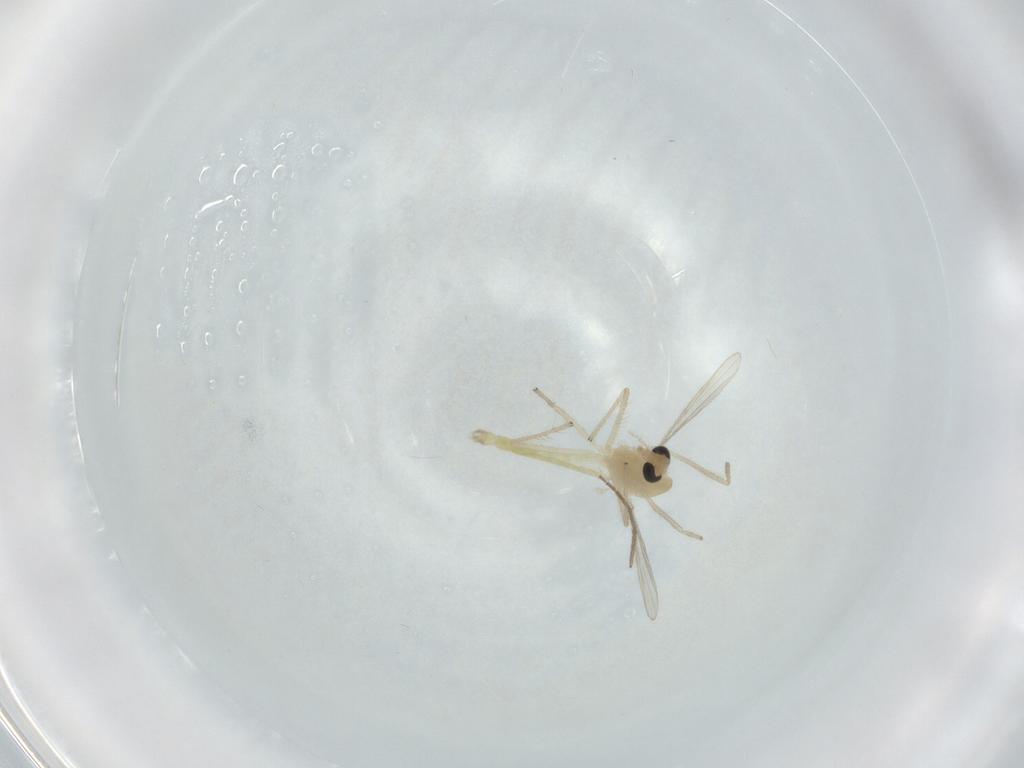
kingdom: Animalia
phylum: Arthropoda
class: Insecta
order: Diptera
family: Chironomidae
